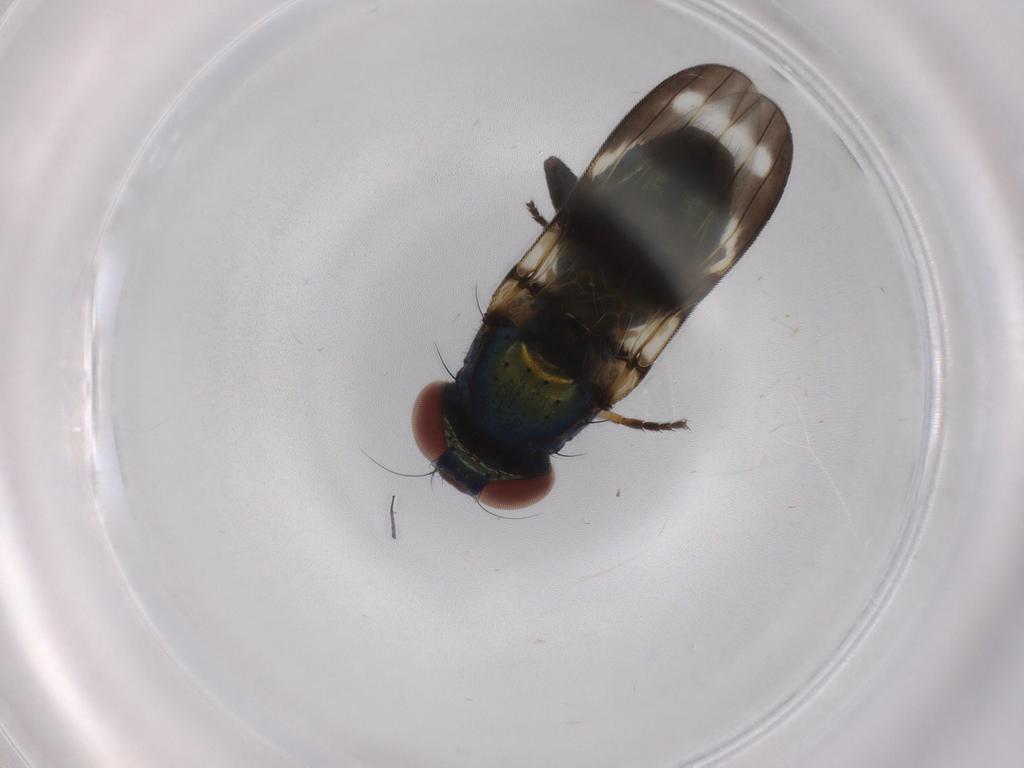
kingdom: Animalia
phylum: Arthropoda
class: Insecta
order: Diptera
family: Ulidiidae
